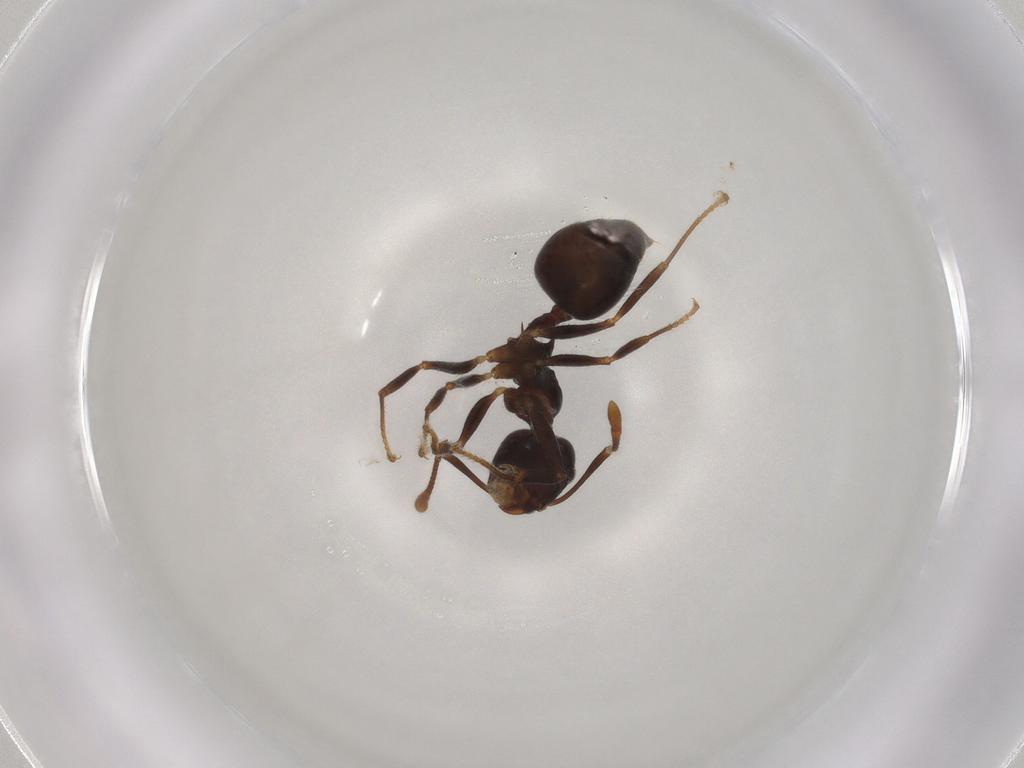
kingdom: Animalia
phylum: Arthropoda
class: Insecta
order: Hymenoptera
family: Formicidae
